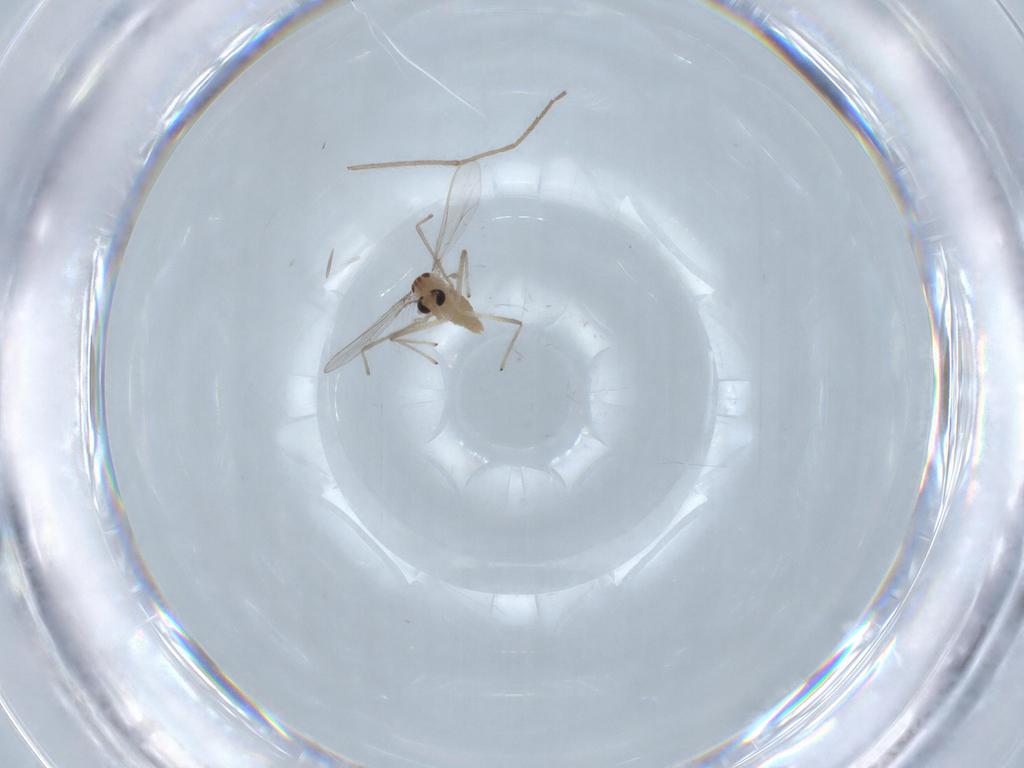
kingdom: Animalia
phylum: Arthropoda
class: Insecta
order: Diptera
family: Chironomidae
